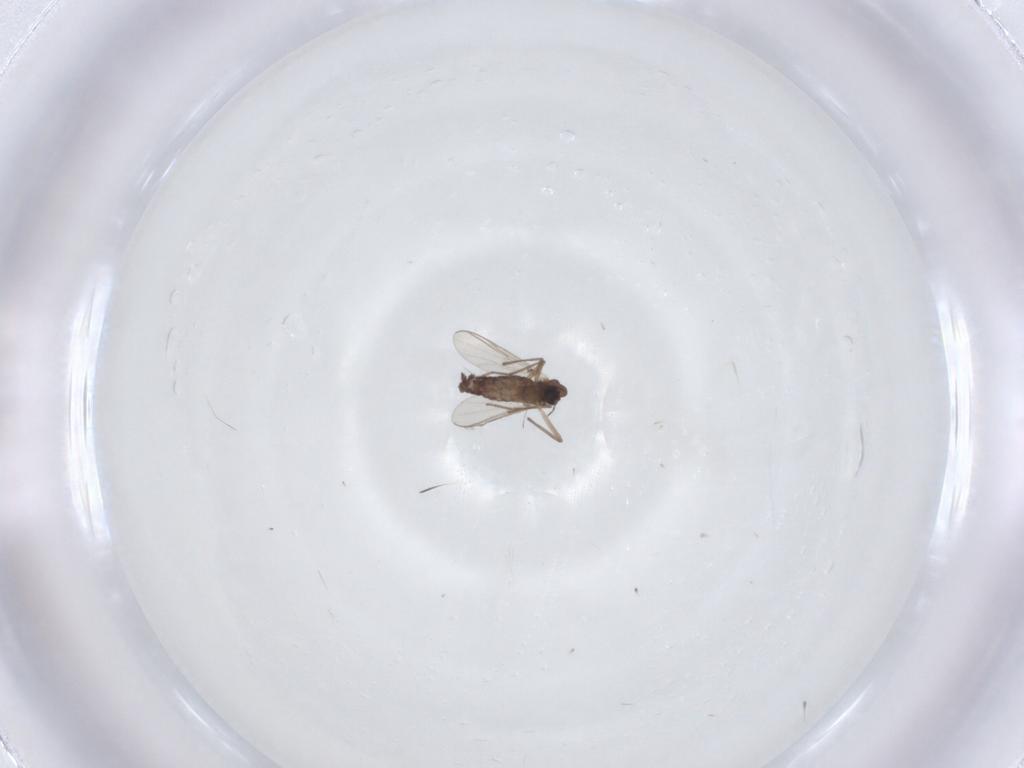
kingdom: Animalia
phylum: Arthropoda
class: Insecta
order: Diptera
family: Chironomidae
